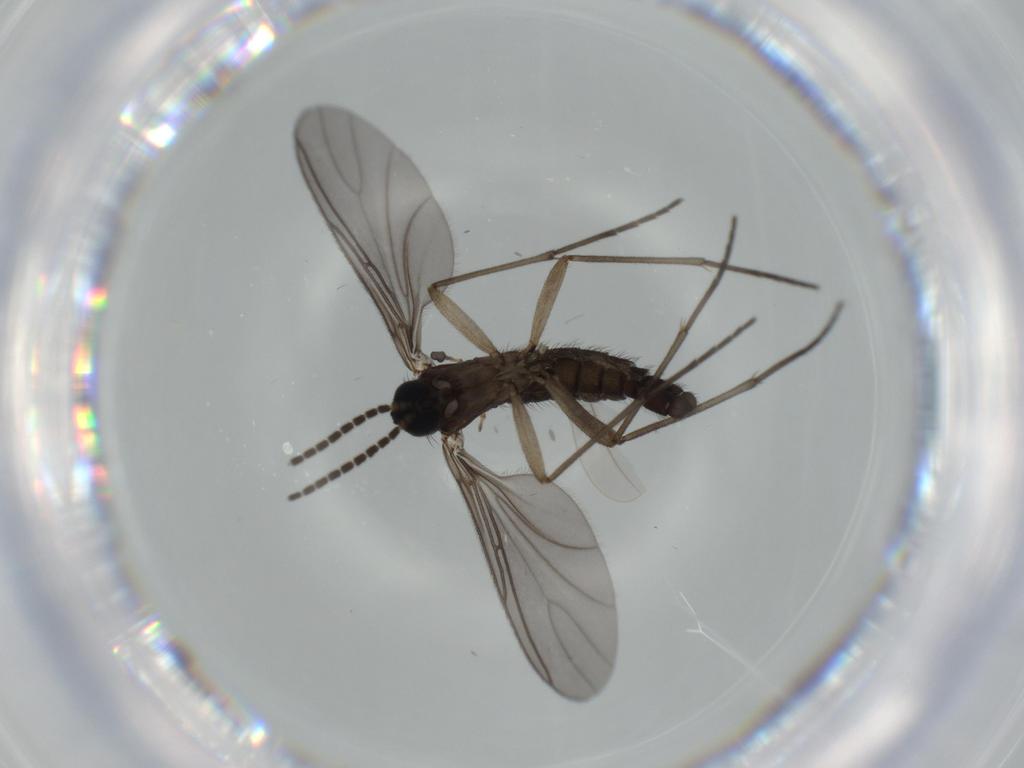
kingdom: Animalia
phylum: Arthropoda
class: Insecta
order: Diptera
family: Sciaridae
